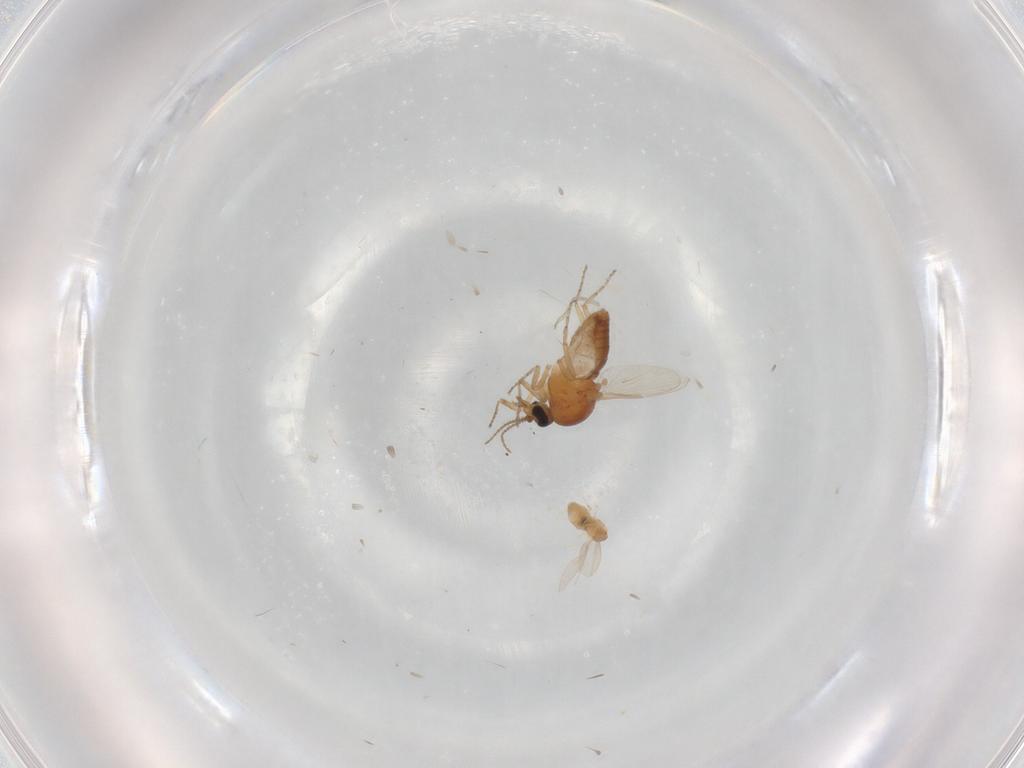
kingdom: Animalia
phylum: Arthropoda
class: Insecta
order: Diptera
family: Cecidomyiidae
